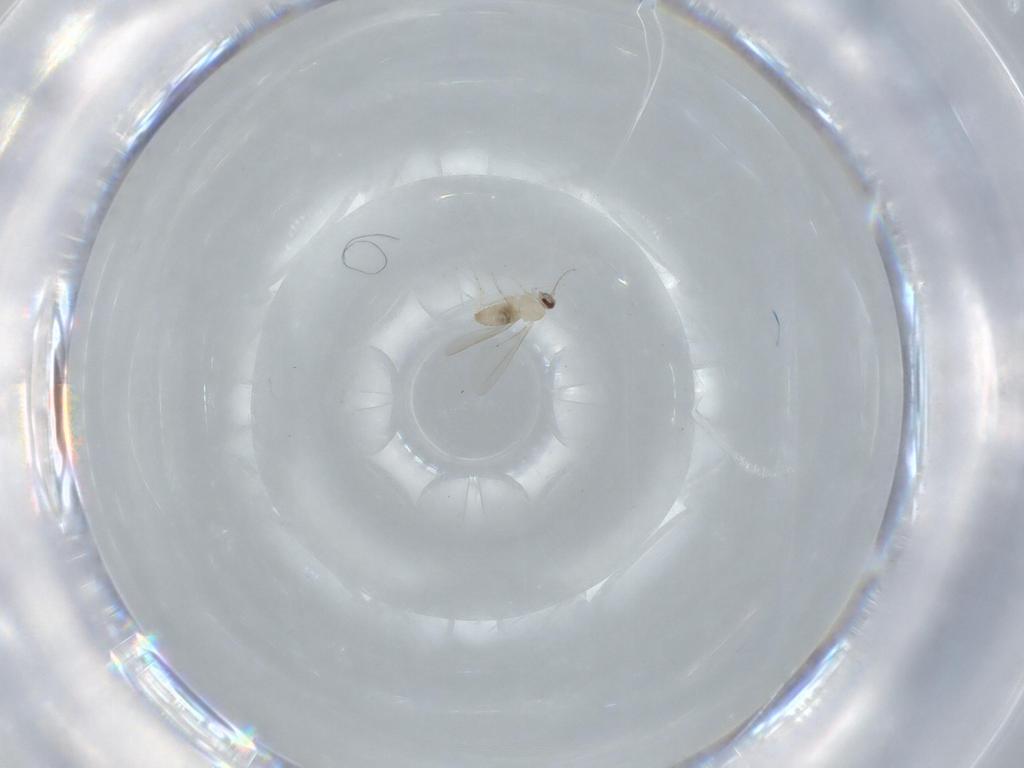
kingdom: Animalia
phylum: Arthropoda
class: Insecta
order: Diptera
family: Cecidomyiidae
